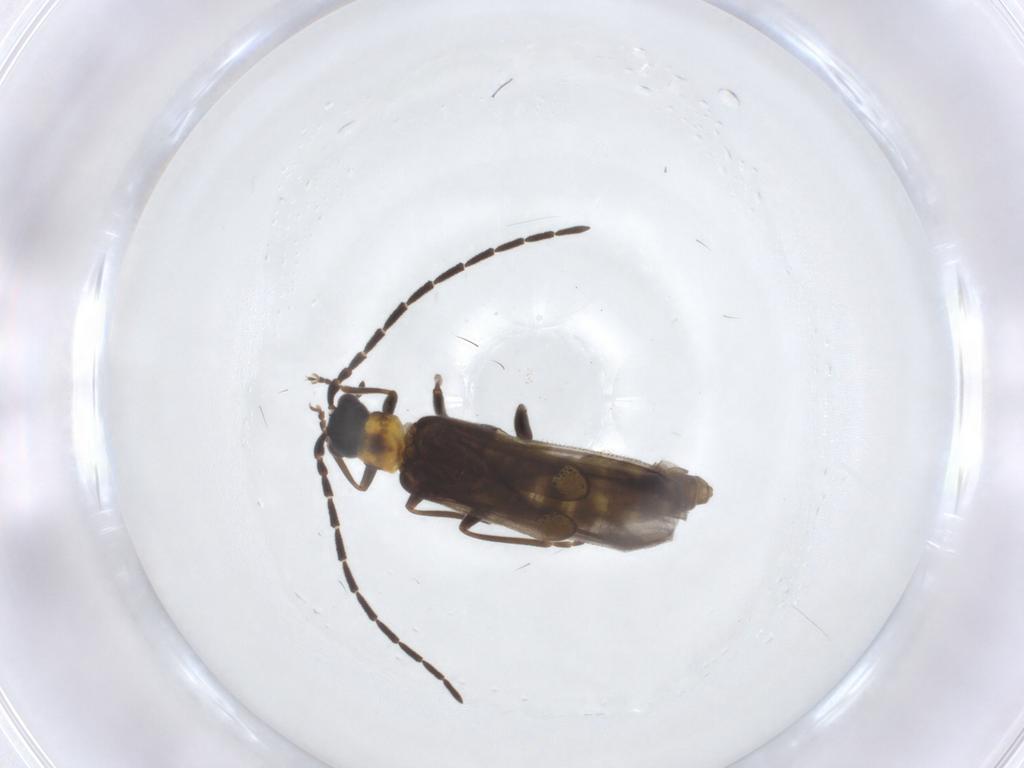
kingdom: Animalia
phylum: Arthropoda
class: Insecta
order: Coleoptera
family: Cantharidae
